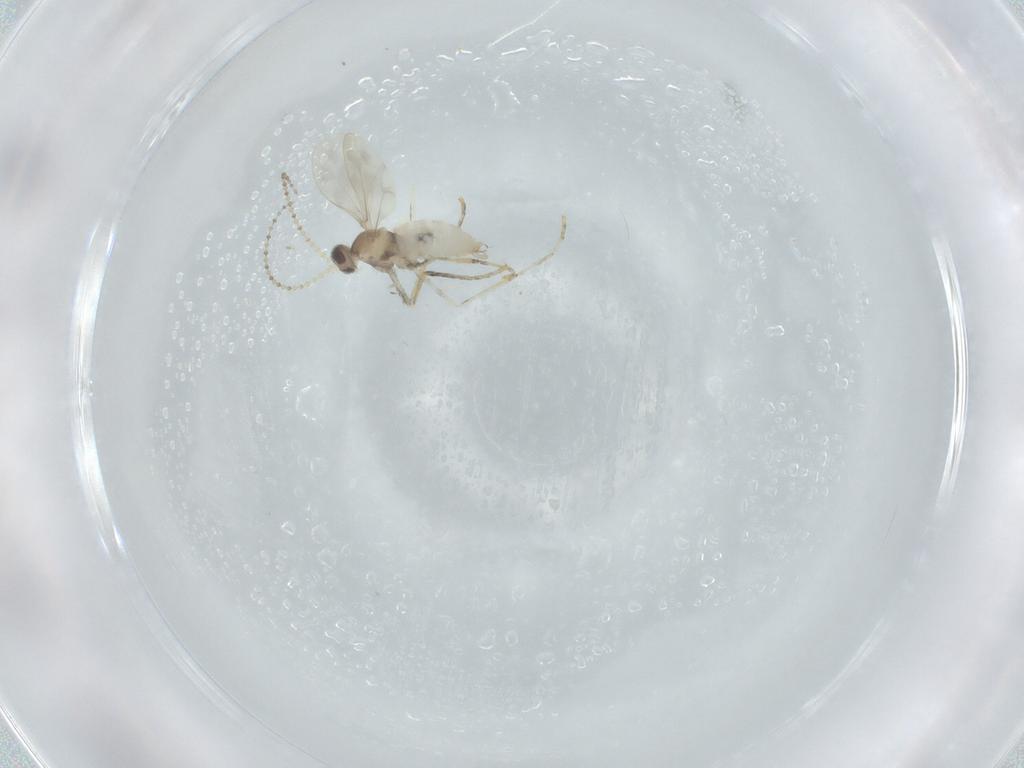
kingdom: Animalia
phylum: Arthropoda
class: Insecta
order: Diptera
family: Cecidomyiidae
